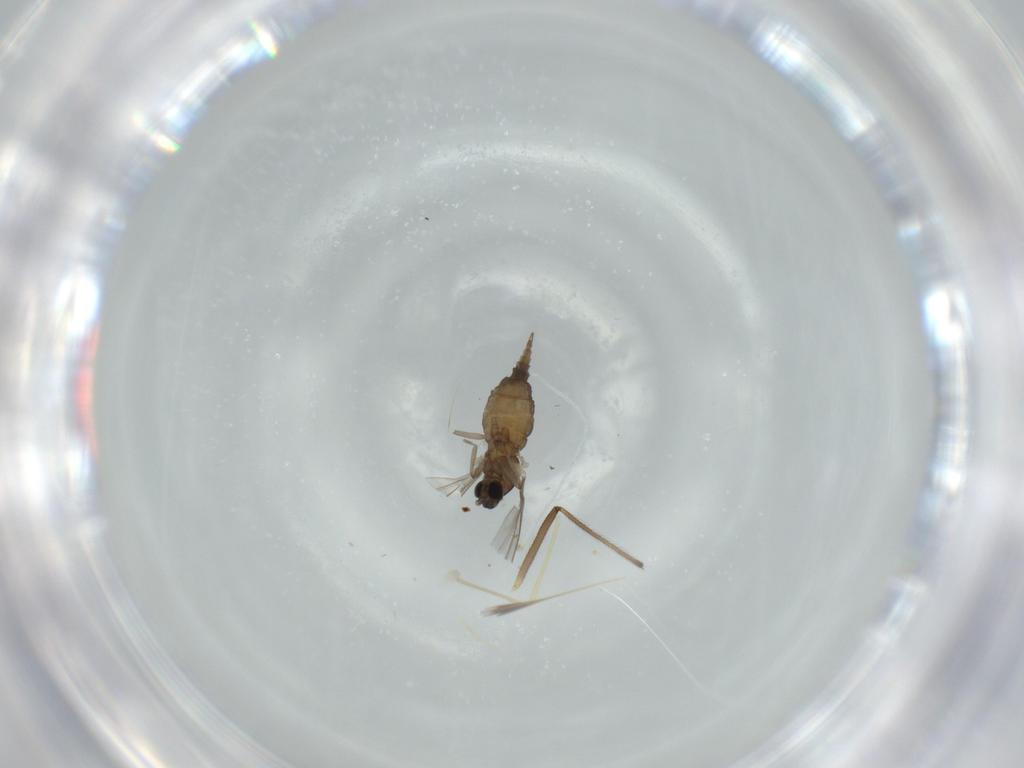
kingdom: Animalia
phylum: Arthropoda
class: Insecta
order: Diptera
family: Chironomidae
